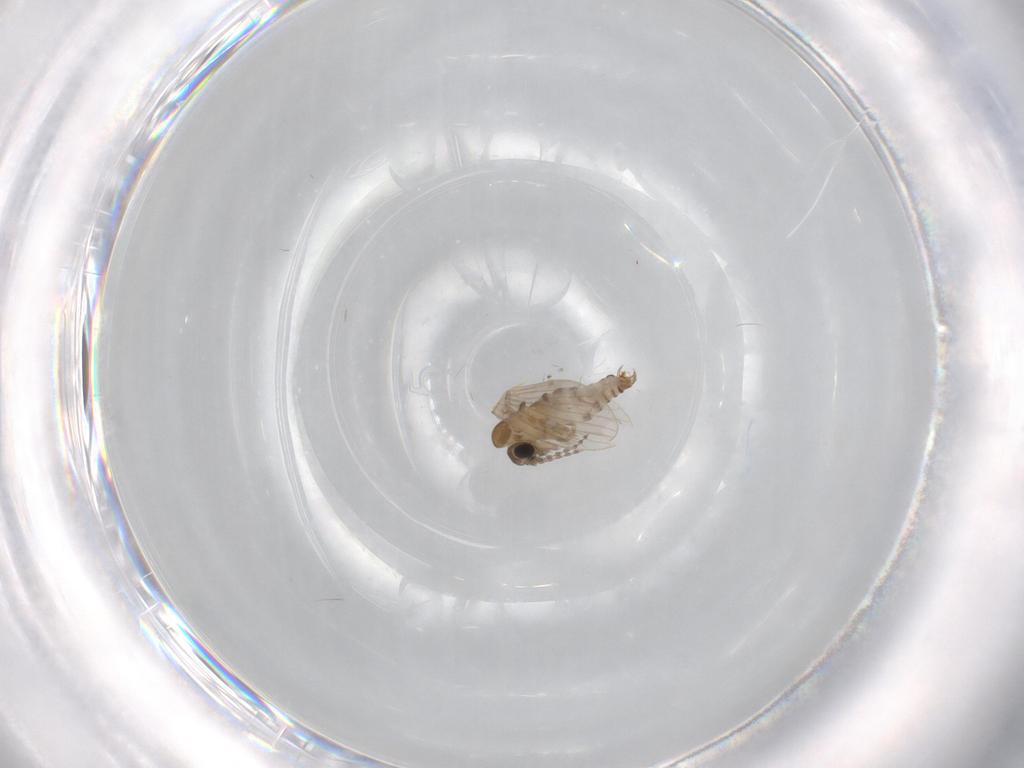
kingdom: Animalia
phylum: Arthropoda
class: Insecta
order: Diptera
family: Psychodidae
